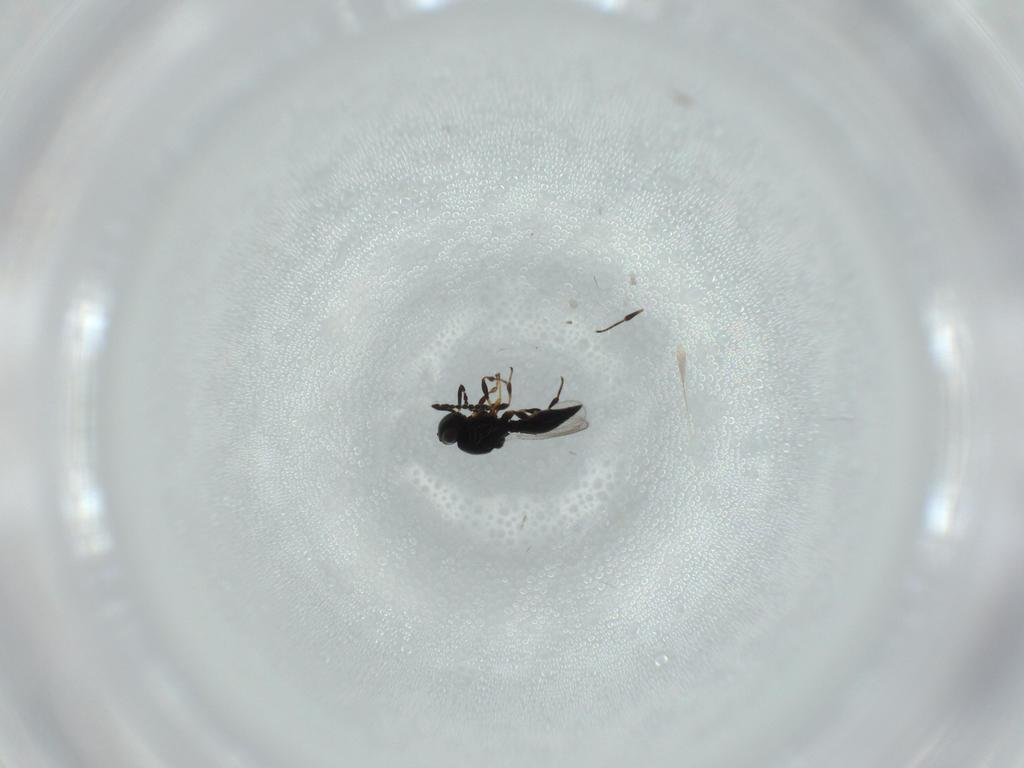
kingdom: Animalia
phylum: Arthropoda
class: Insecta
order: Hymenoptera
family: Platygastridae
